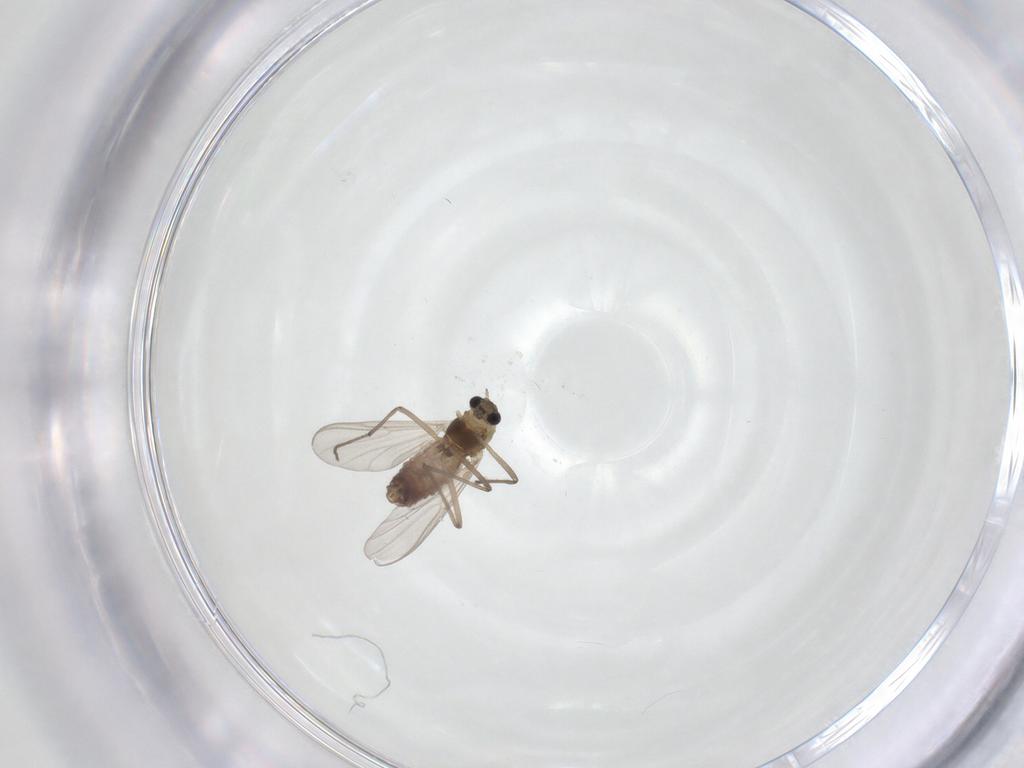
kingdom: Animalia
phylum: Arthropoda
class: Insecta
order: Diptera
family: Chironomidae
